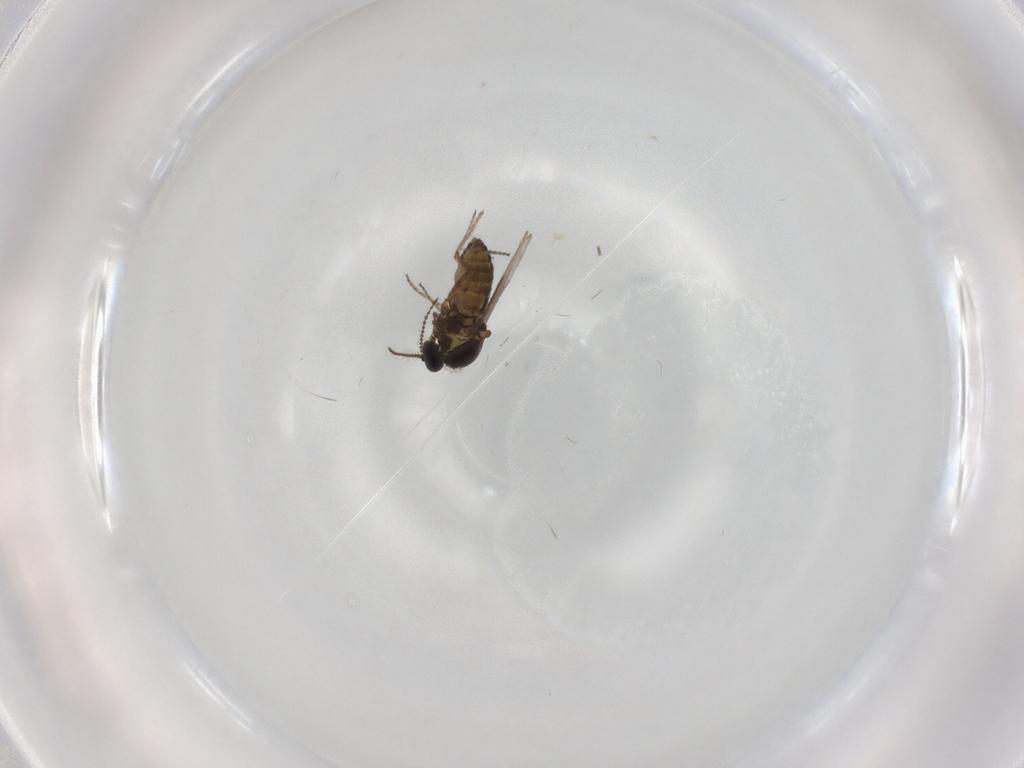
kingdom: Animalia
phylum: Arthropoda
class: Insecta
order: Diptera
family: Ceratopogonidae
